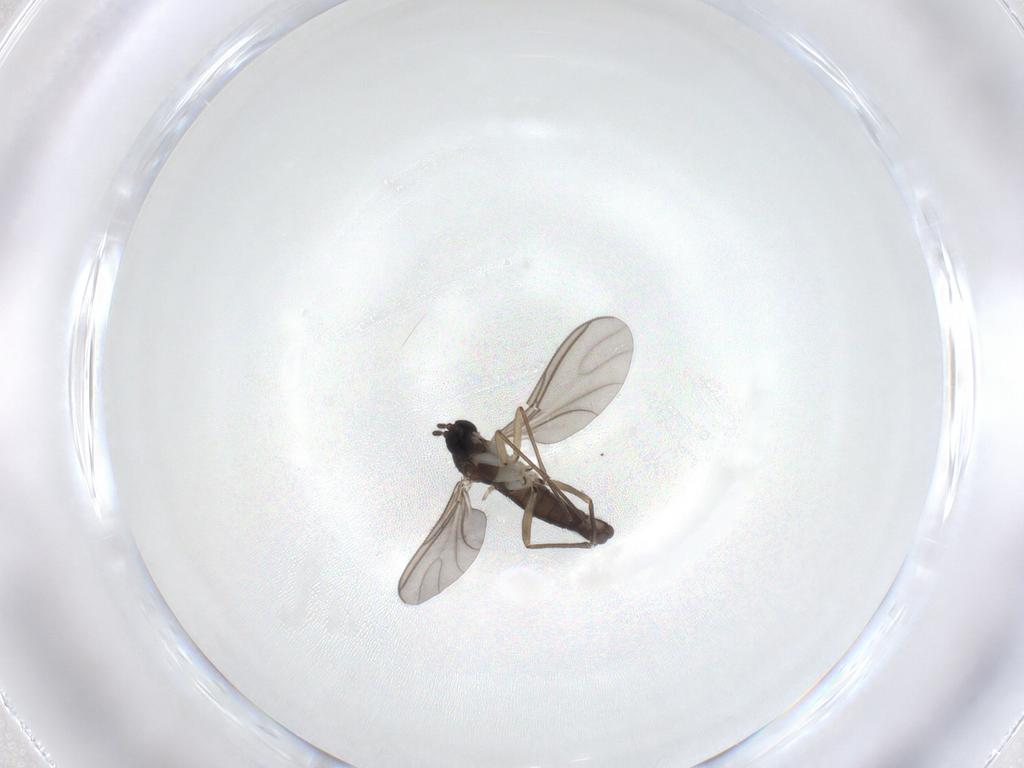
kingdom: Animalia
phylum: Arthropoda
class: Insecta
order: Diptera
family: Sciaridae
